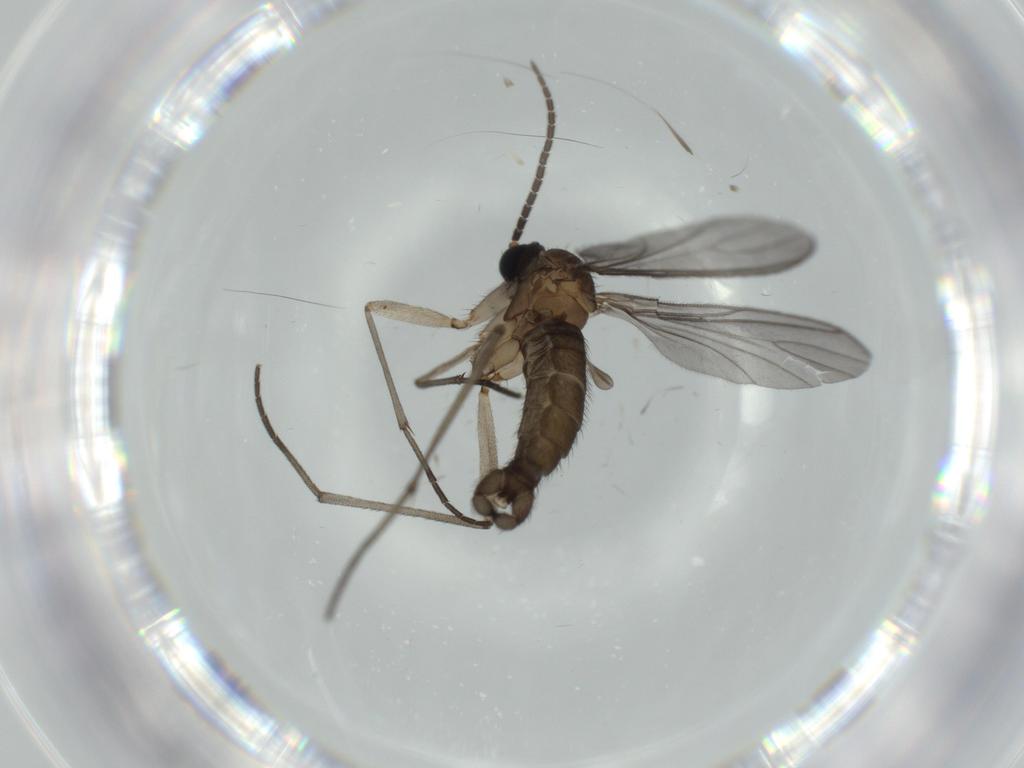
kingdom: Animalia
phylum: Arthropoda
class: Insecta
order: Diptera
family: Sciaridae
